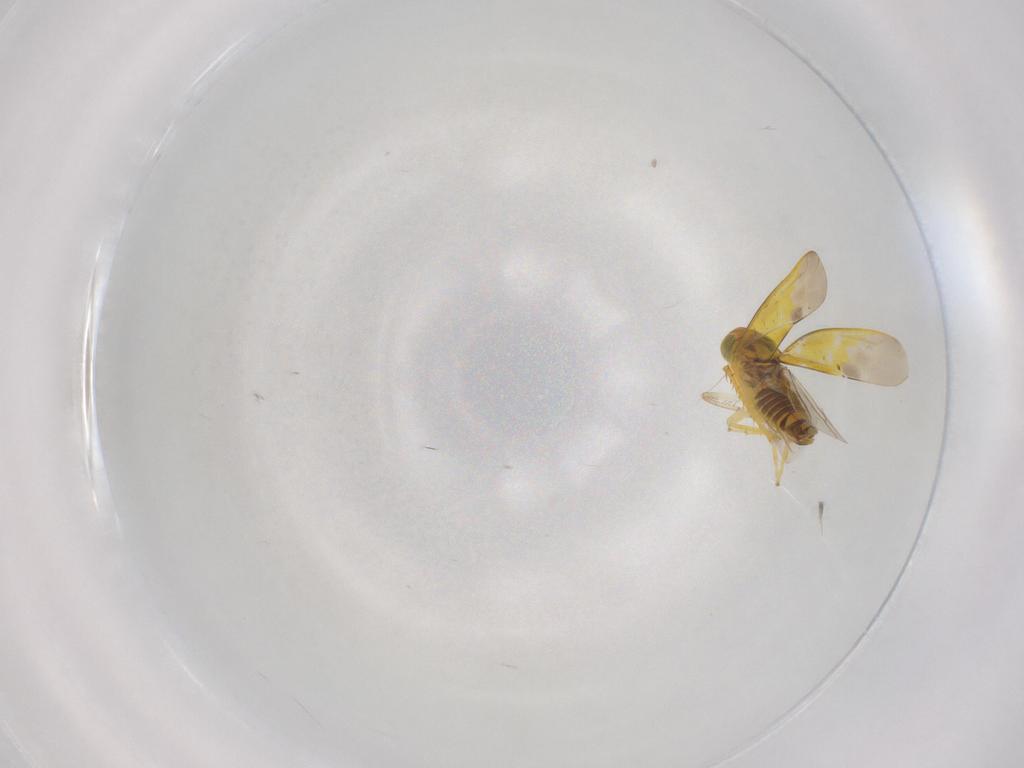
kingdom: Animalia
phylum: Arthropoda
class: Insecta
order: Hemiptera
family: Cicadellidae
